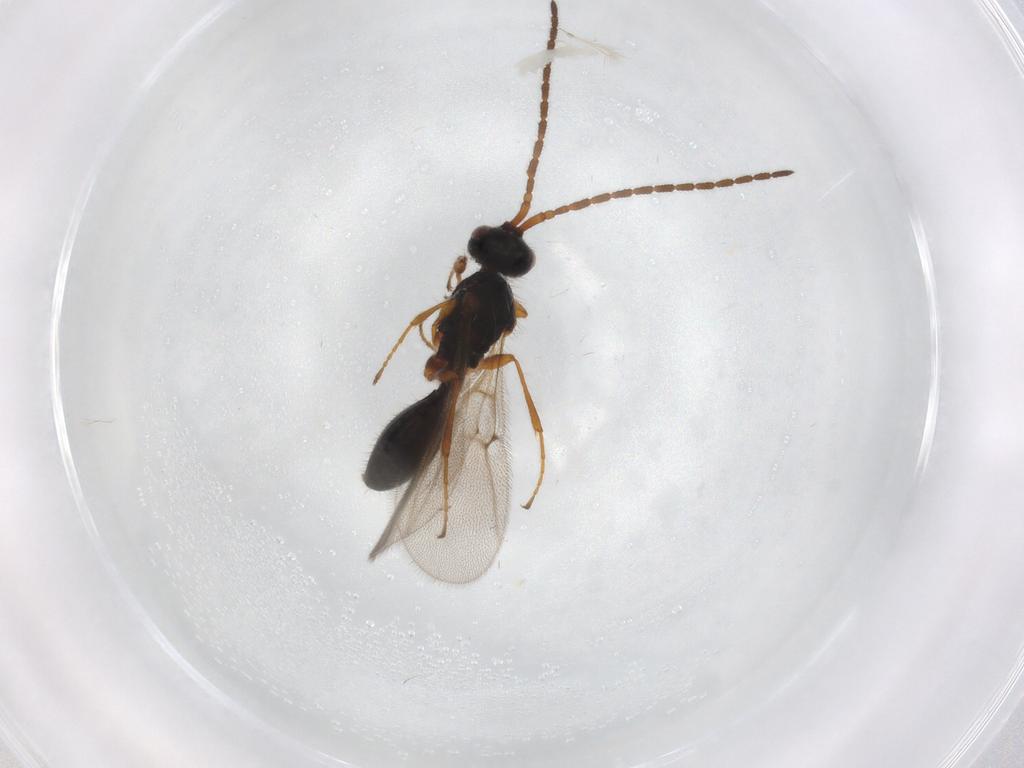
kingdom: Animalia
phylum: Arthropoda
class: Insecta
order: Hymenoptera
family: Diapriidae
